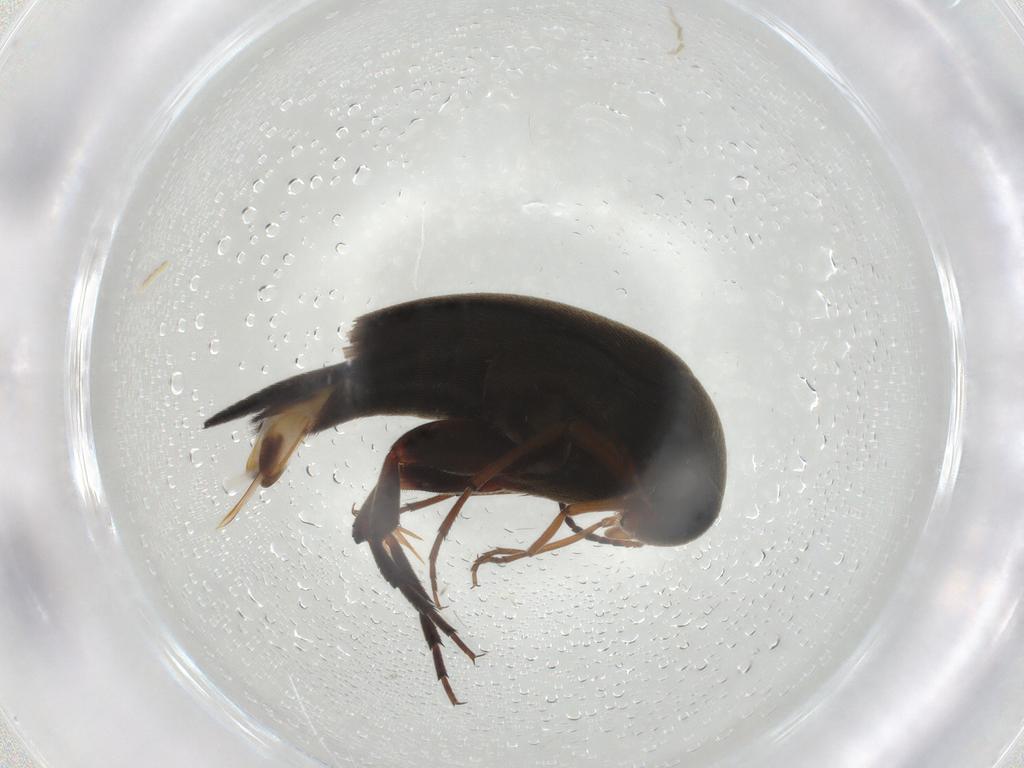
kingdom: Animalia
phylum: Arthropoda
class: Insecta
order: Coleoptera
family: Mordellidae
